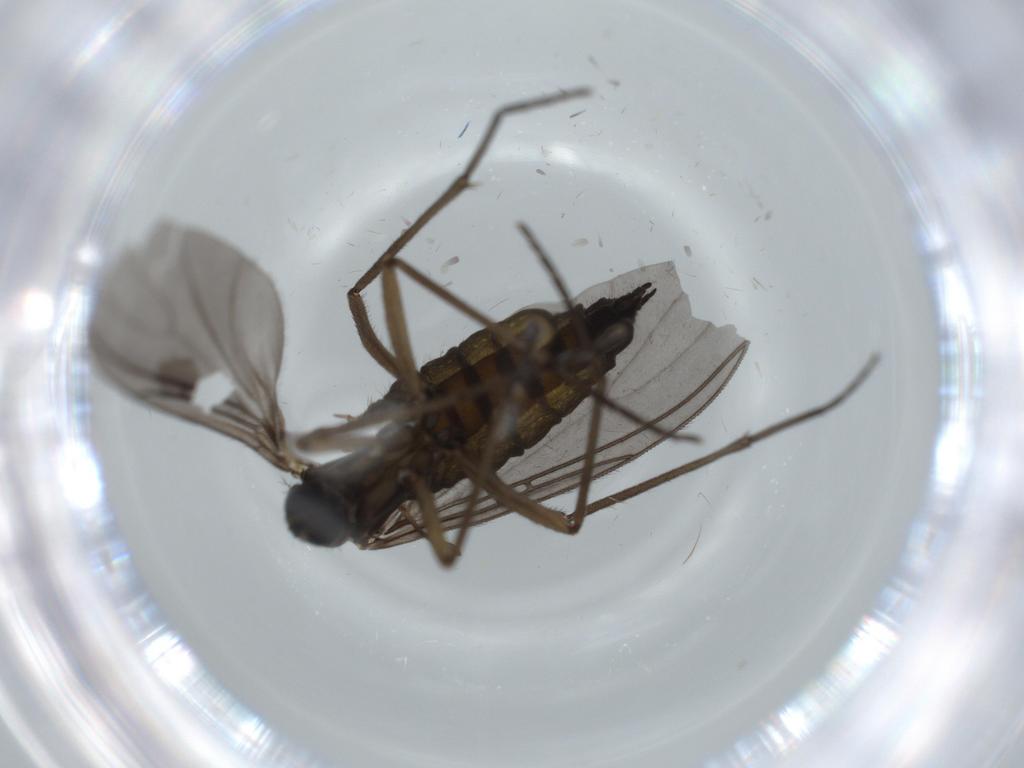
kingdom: Animalia
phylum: Arthropoda
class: Insecta
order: Diptera
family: Sciaridae
